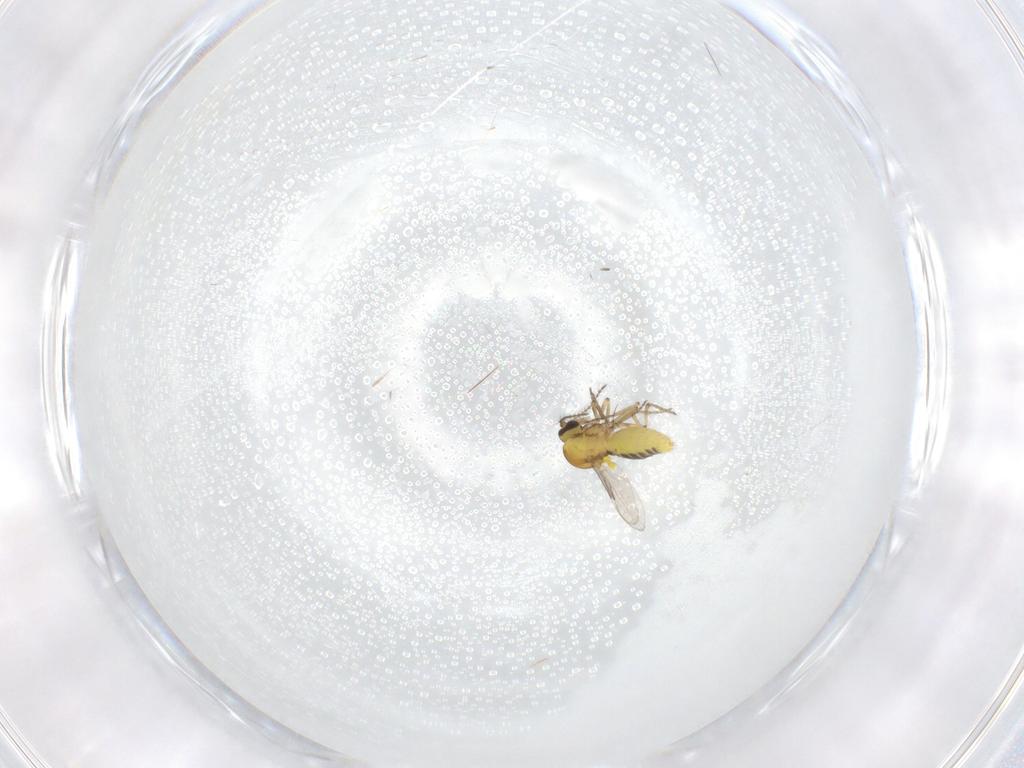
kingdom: Animalia
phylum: Arthropoda
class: Insecta
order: Diptera
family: Ceratopogonidae
